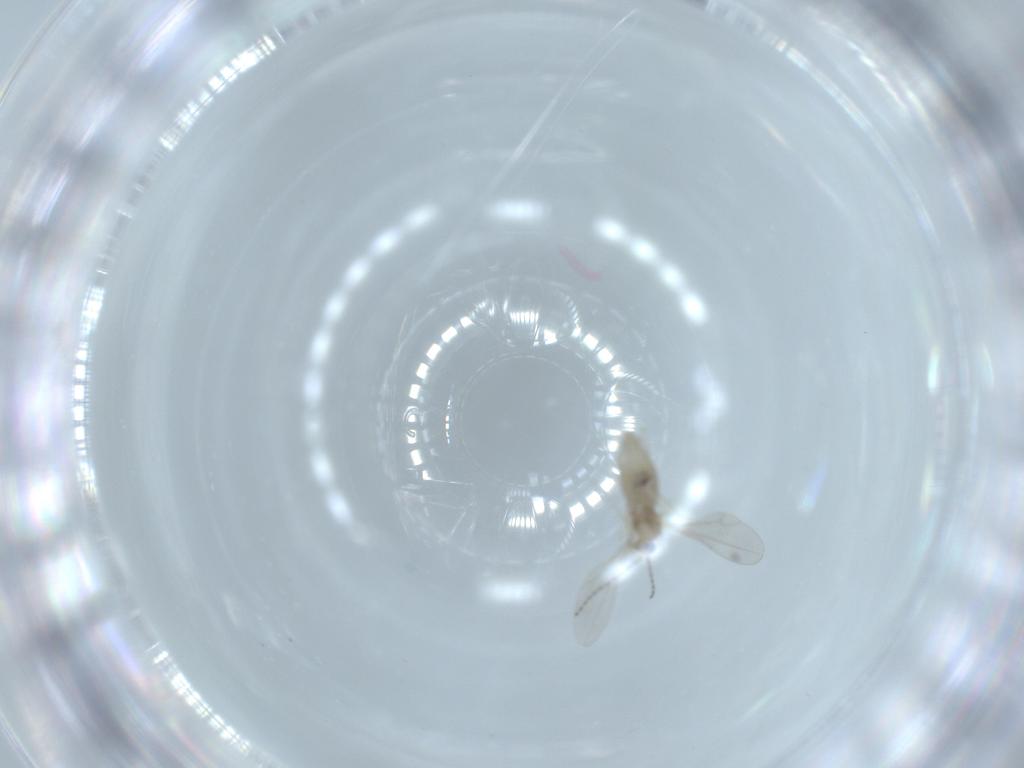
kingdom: Animalia
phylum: Arthropoda
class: Insecta
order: Diptera
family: Cecidomyiidae
